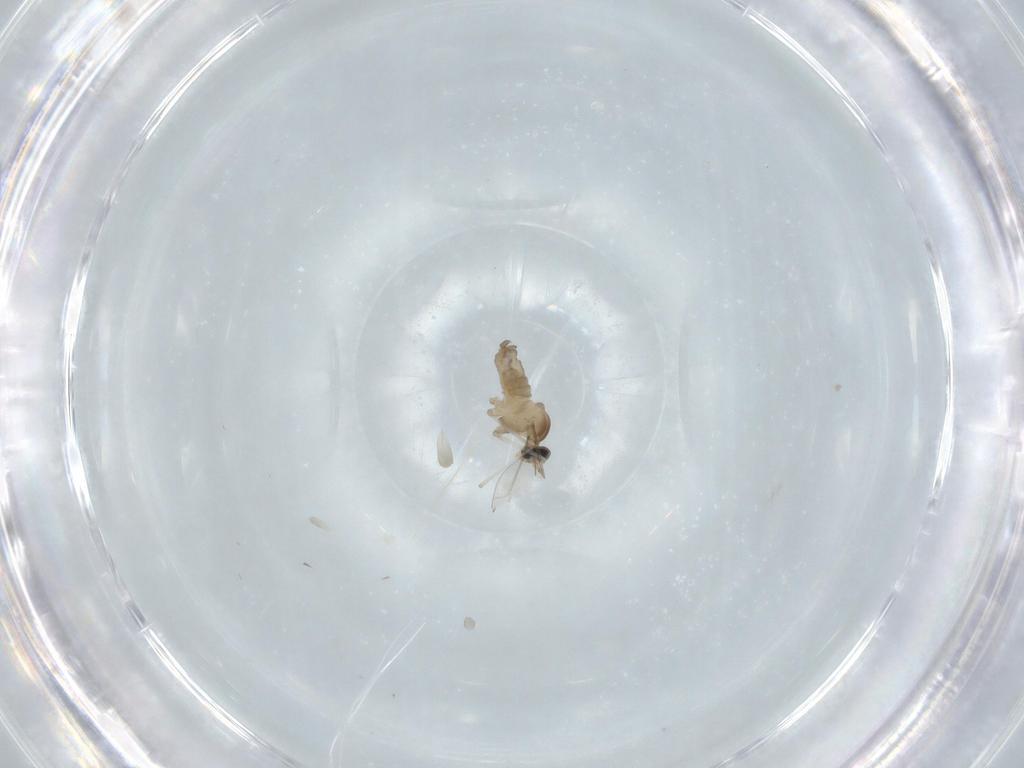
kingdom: Animalia
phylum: Arthropoda
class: Insecta
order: Diptera
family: Cecidomyiidae
